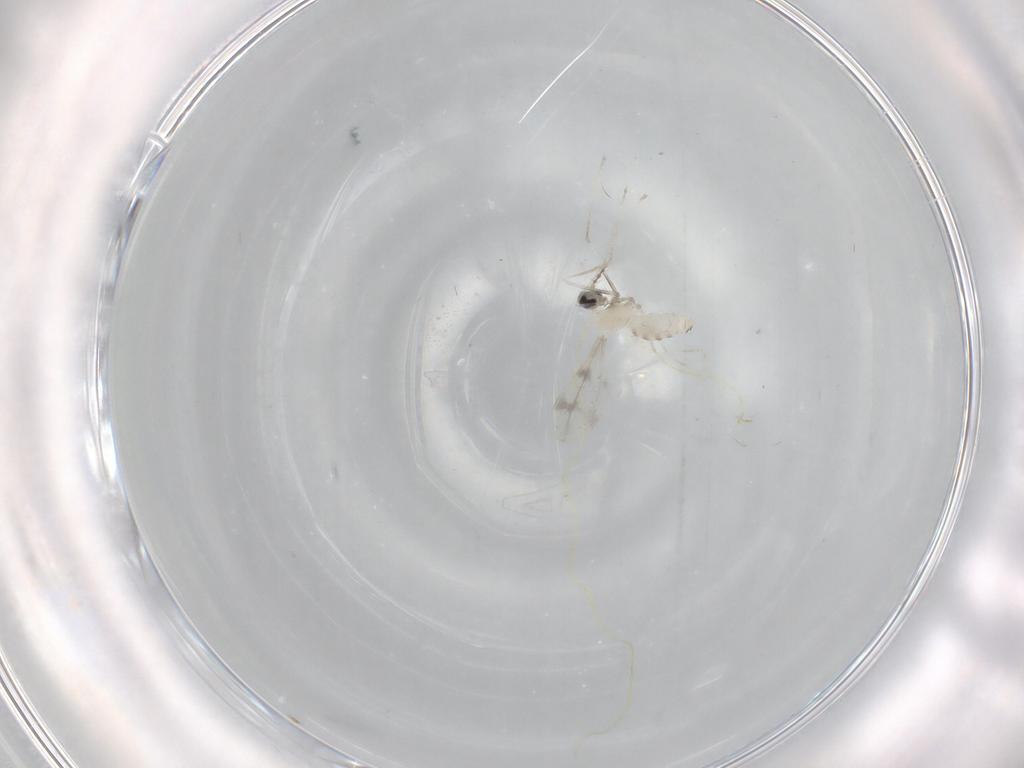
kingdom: Animalia
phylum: Arthropoda
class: Insecta
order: Diptera
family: Cecidomyiidae
